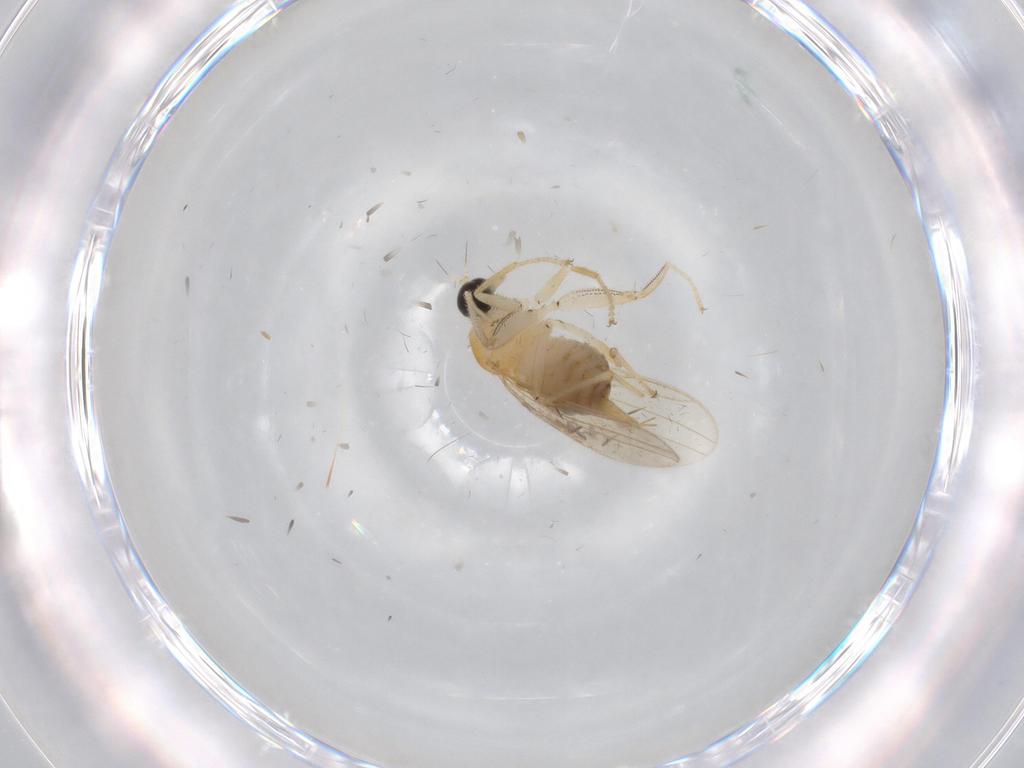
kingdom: Animalia
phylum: Arthropoda
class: Insecta
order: Diptera
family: Hybotidae
